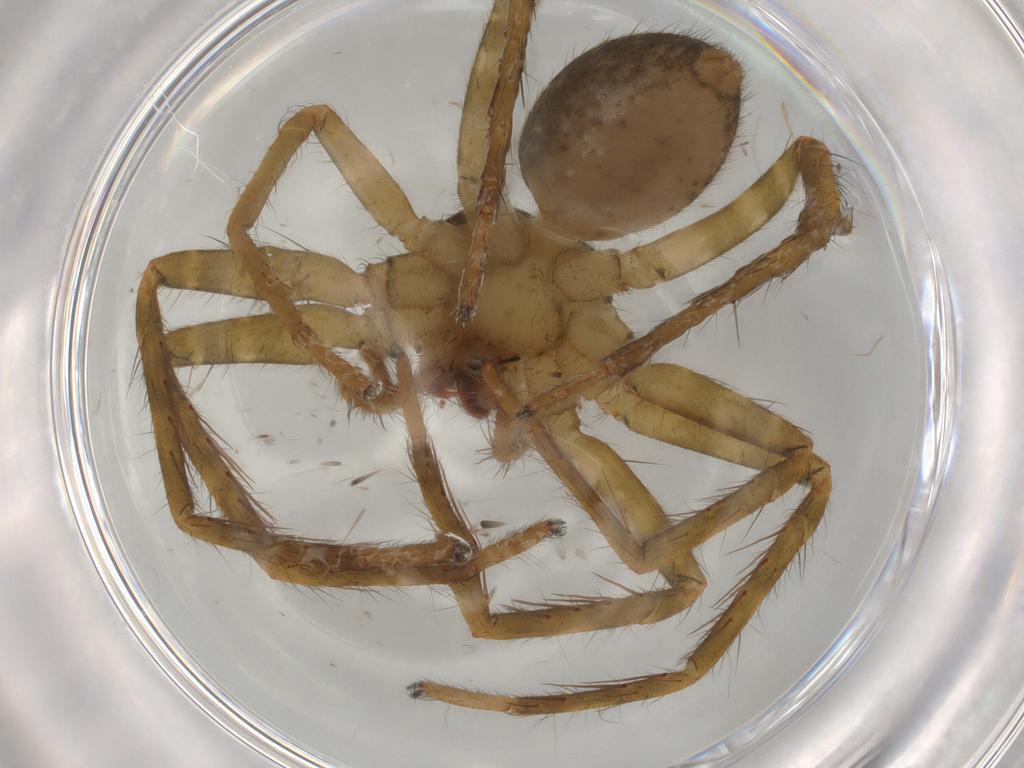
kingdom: Animalia
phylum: Arthropoda
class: Arachnida
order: Araneae
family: Trechaleidae
